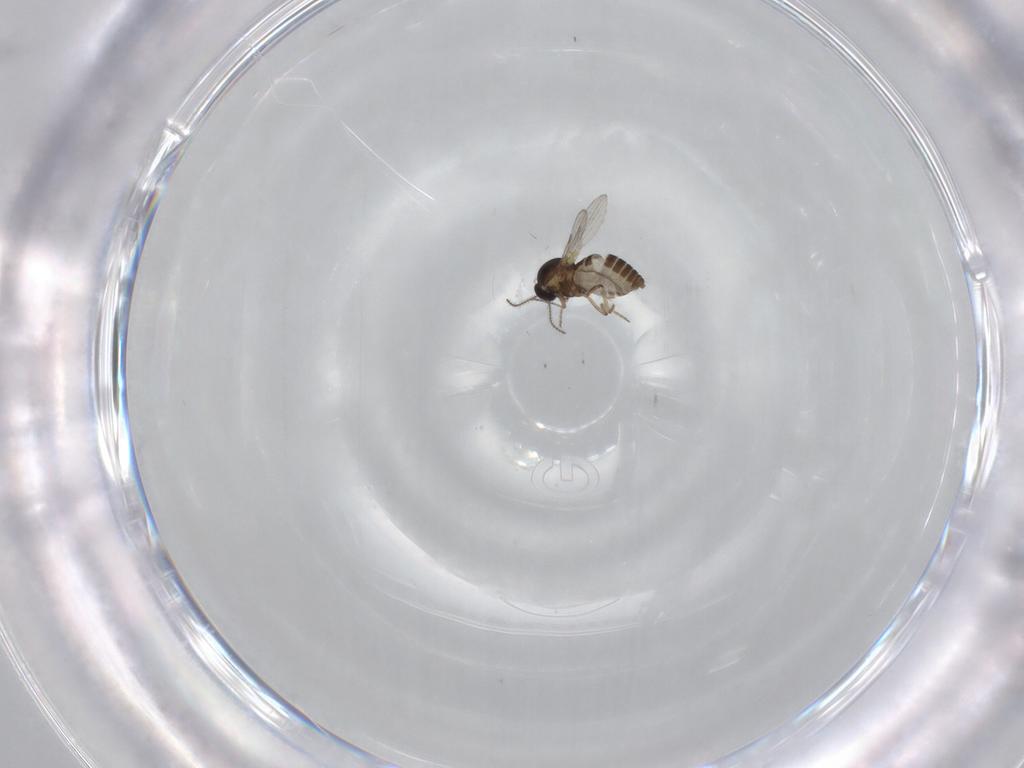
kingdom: Animalia
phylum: Arthropoda
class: Insecta
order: Diptera
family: Ceratopogonidae
